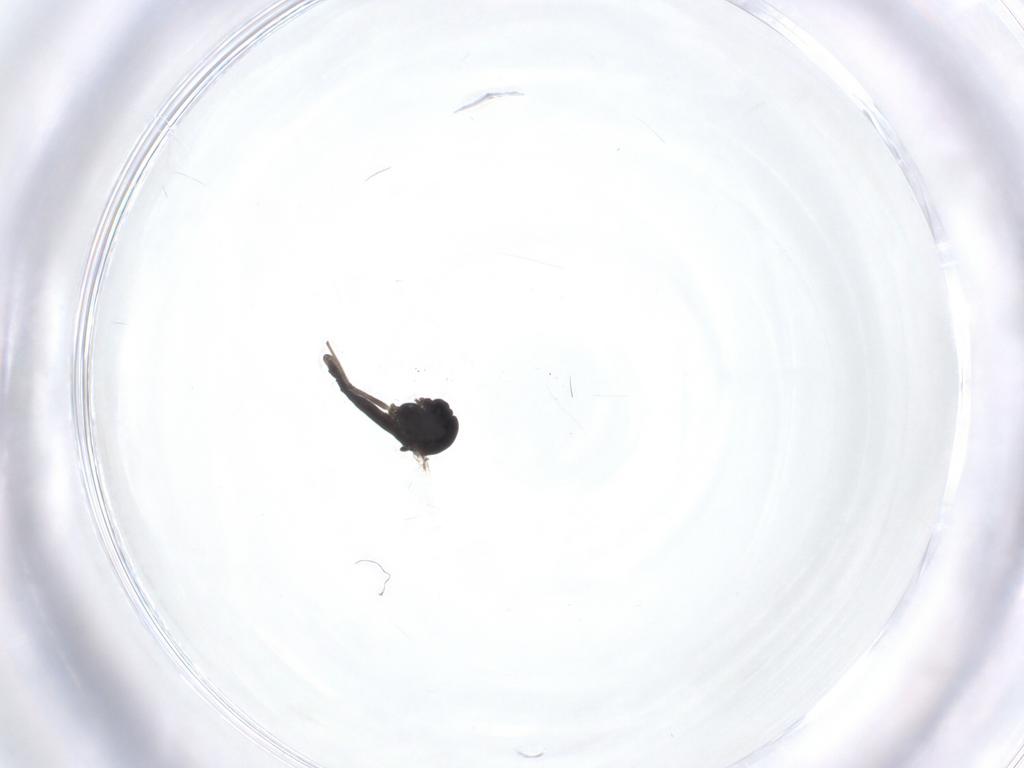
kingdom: Animalia
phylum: Arthropoda
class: Insecta
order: Diptera
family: Chironomidae
